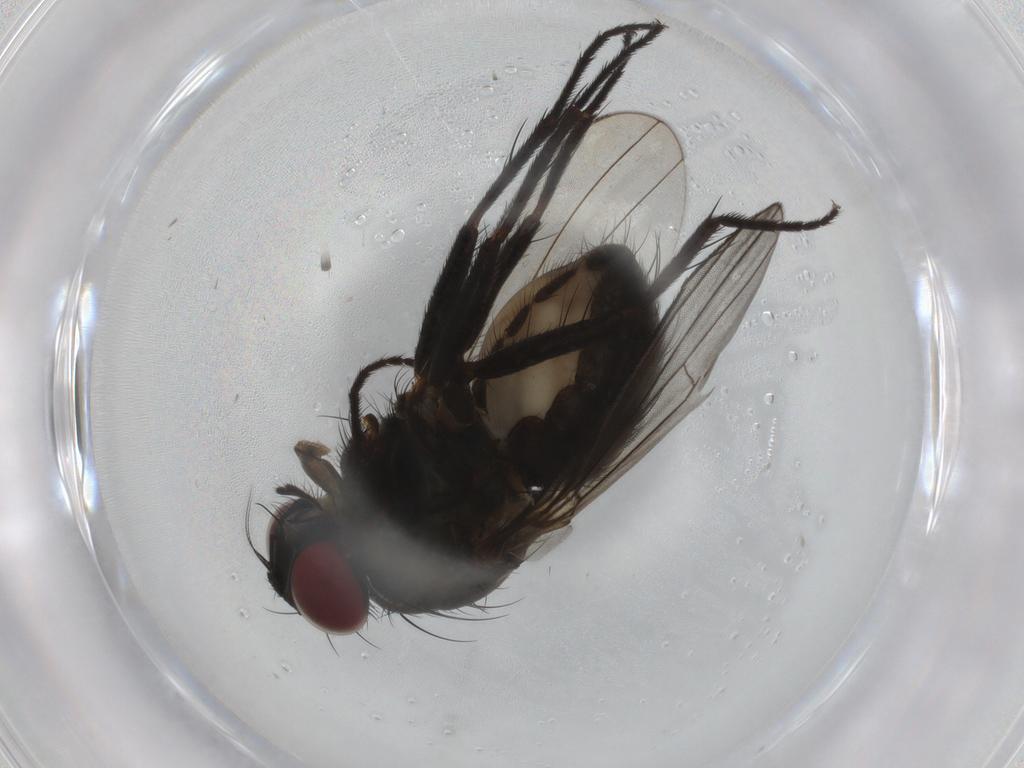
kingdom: Animalia
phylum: Arthropoda
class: Insecta
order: Diptera
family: Muscidae
